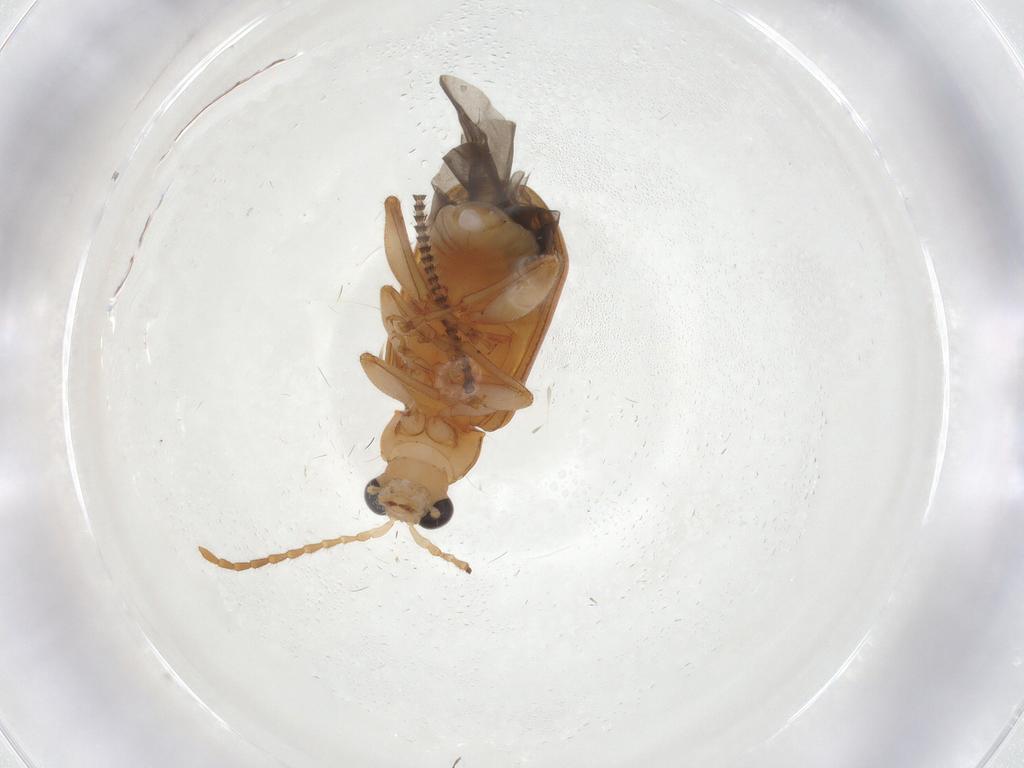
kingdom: Animalia
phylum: Arthropoda
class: Insecta
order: Coleoptera
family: Chrysomelidae
